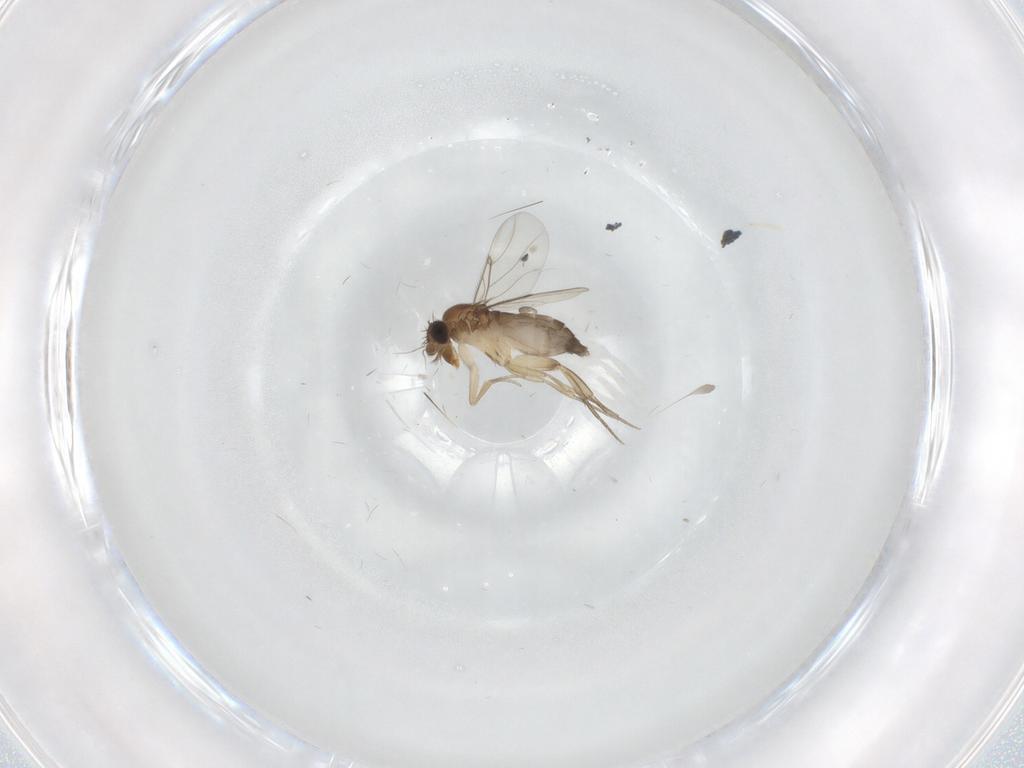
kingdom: Animalia
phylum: Arthropoda
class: Insecta
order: Diptera
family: Phoridae
